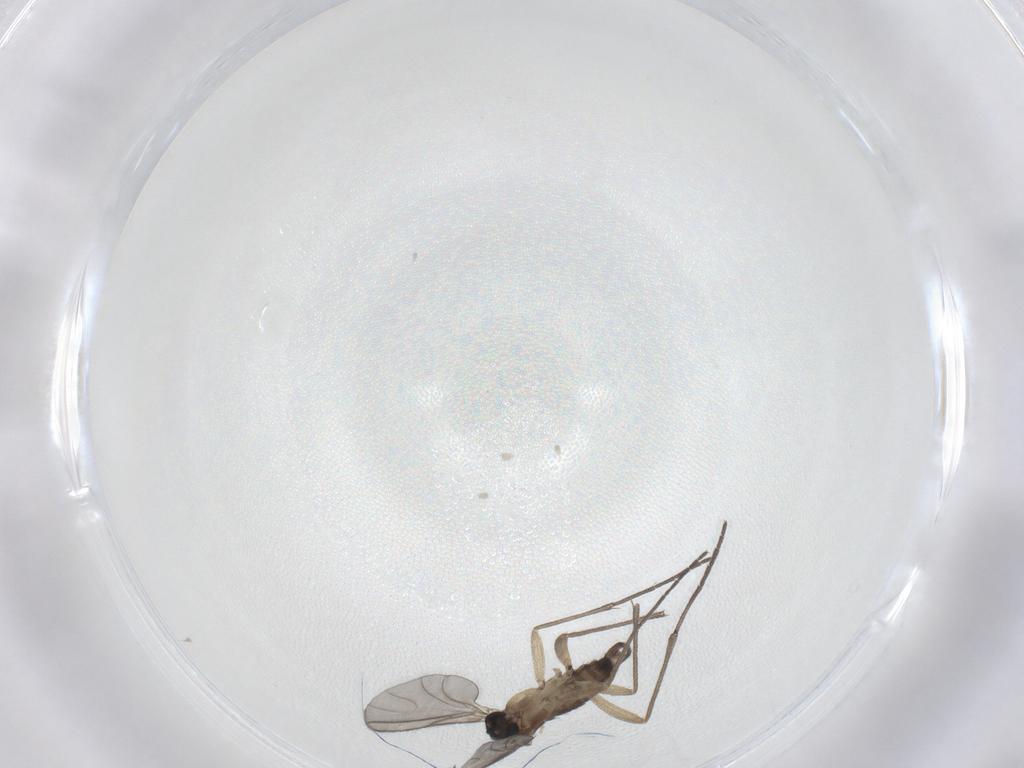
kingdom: Animalia
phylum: Arthropoda
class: Insecta
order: Diptera
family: Sciaridae
